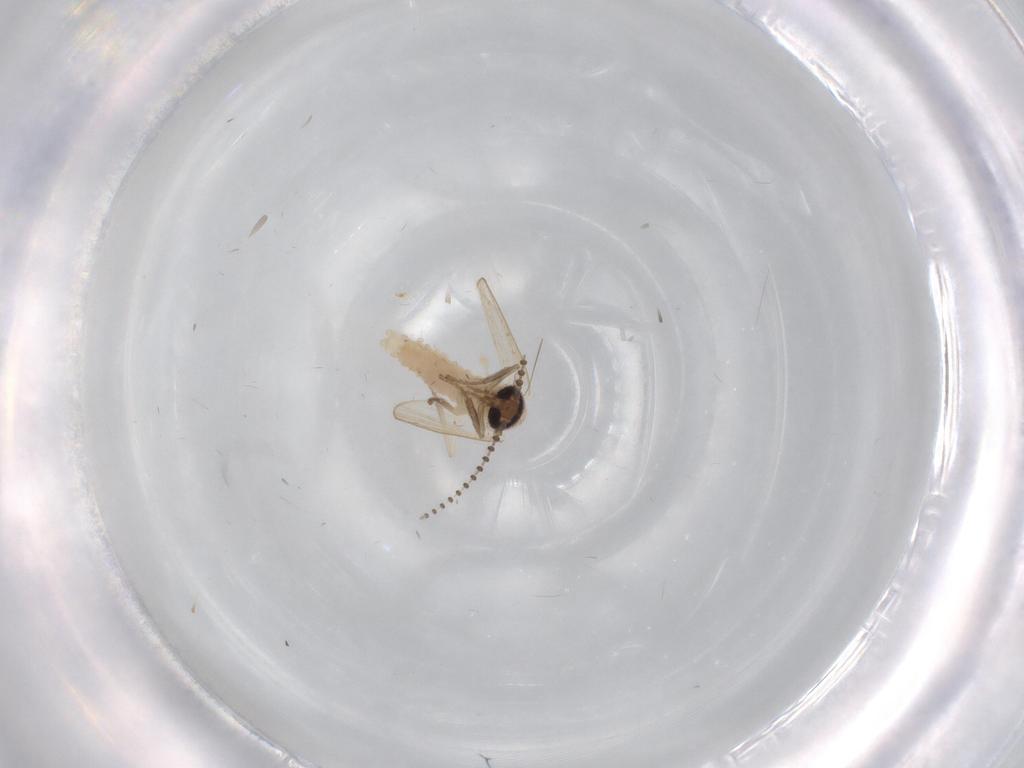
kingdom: Animalia
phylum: Arthropoda
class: Insecta
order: Diptera
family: Psychodidae
